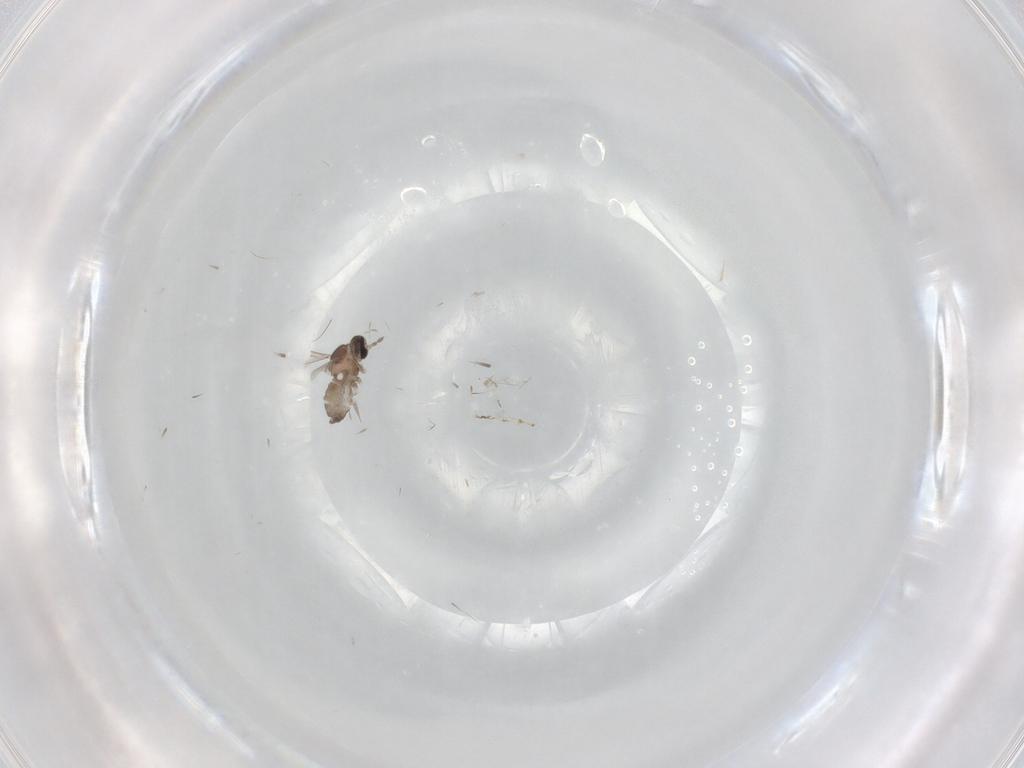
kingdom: Animalia
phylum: Arthropoda
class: Insecta
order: Diptera
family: Cecidomyiidae
